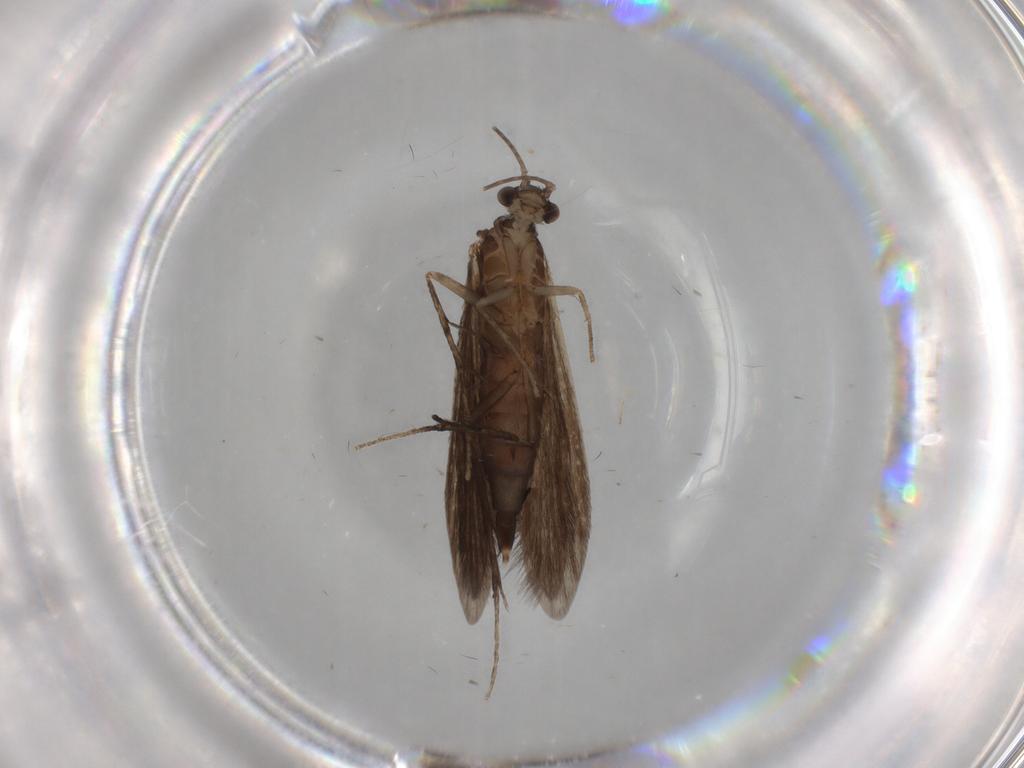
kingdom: Animalia
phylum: Arthropoda
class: Insecta
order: Trichoptera
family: Xiphocentronidae
